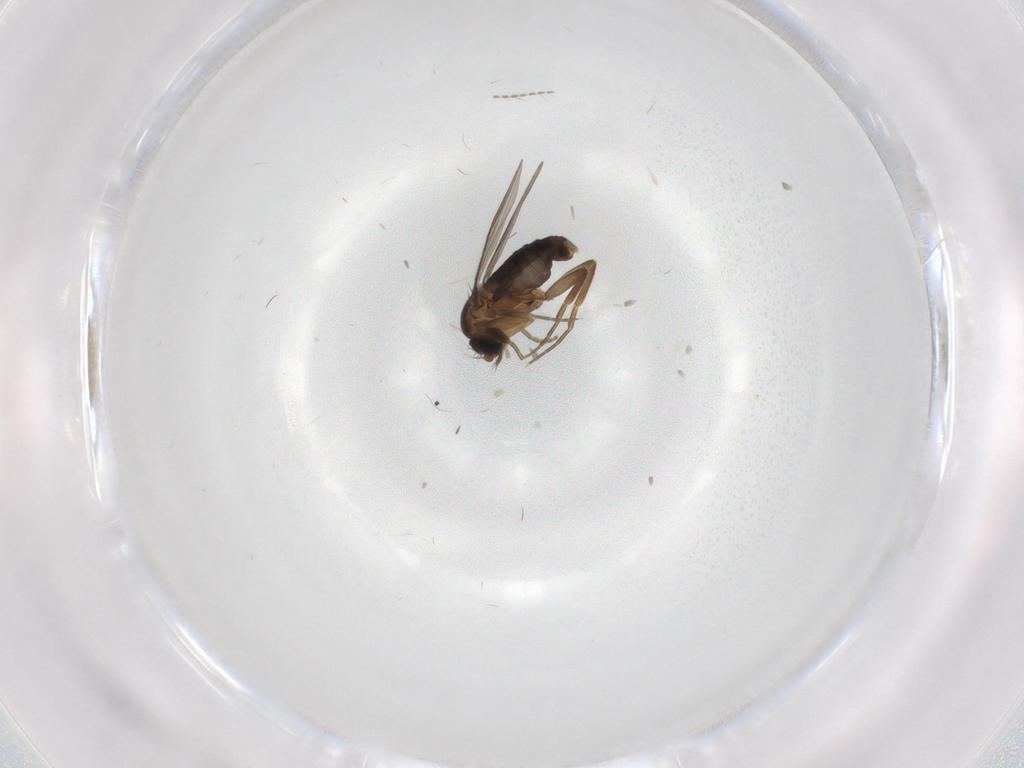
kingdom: Animalia
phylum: Arthropoda
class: Insecta
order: Diptera
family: Phoridae
